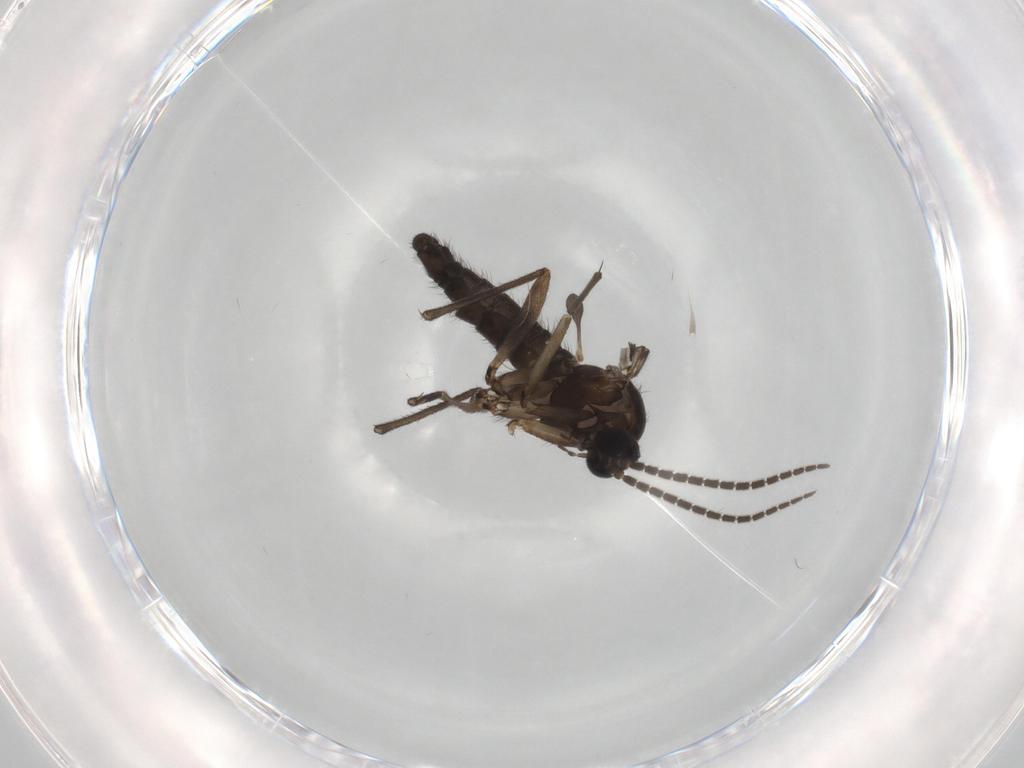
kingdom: Animalia
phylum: Arthropoda
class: Insecta
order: Diptera
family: Sciaridae
